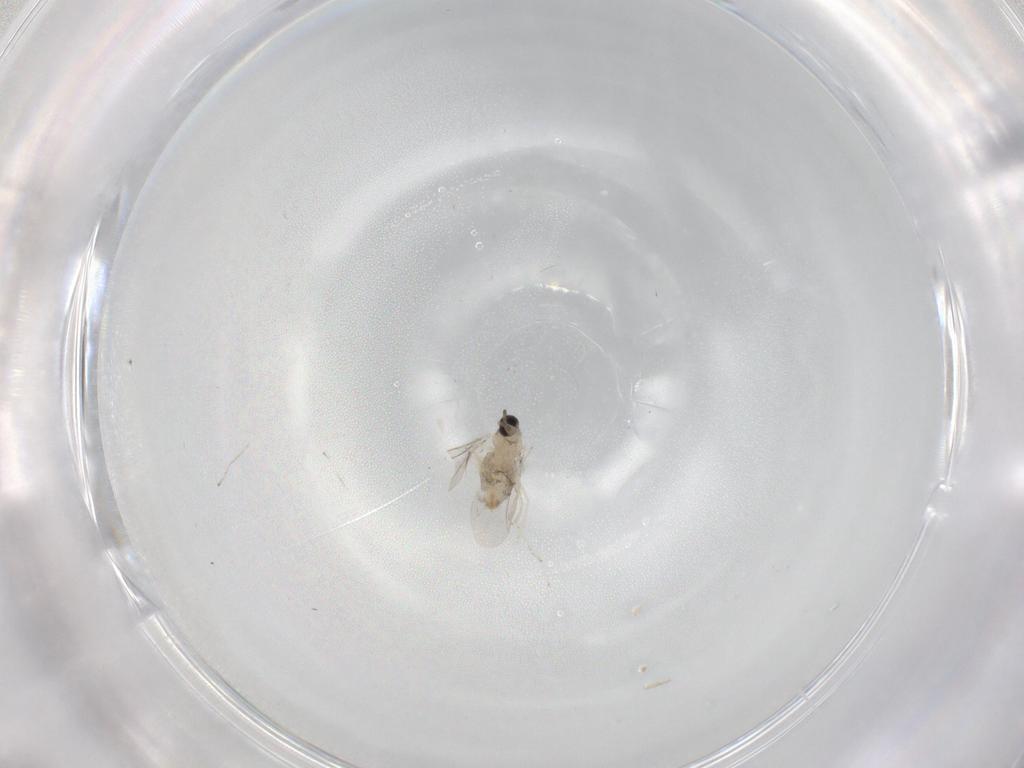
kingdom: Animalia
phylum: Arthropoda
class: Insecta
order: Diptera
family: Cecidomyiidae
